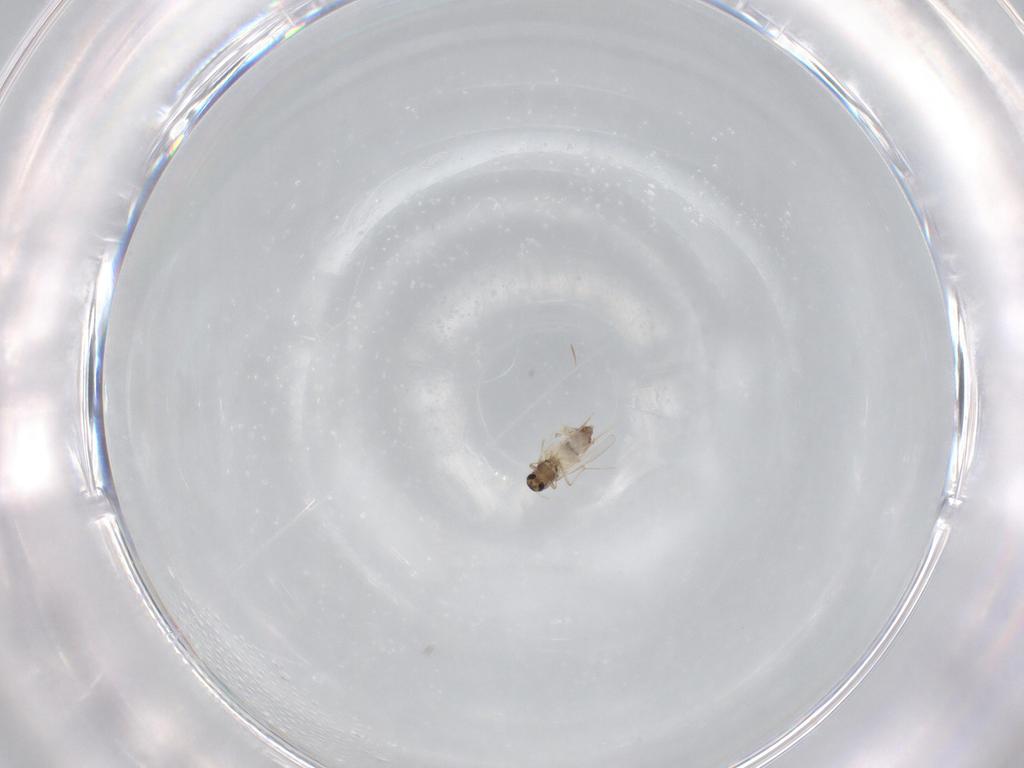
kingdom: Animalia
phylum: Arthropoda
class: Insecta
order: Diptera
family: Chironomidae
